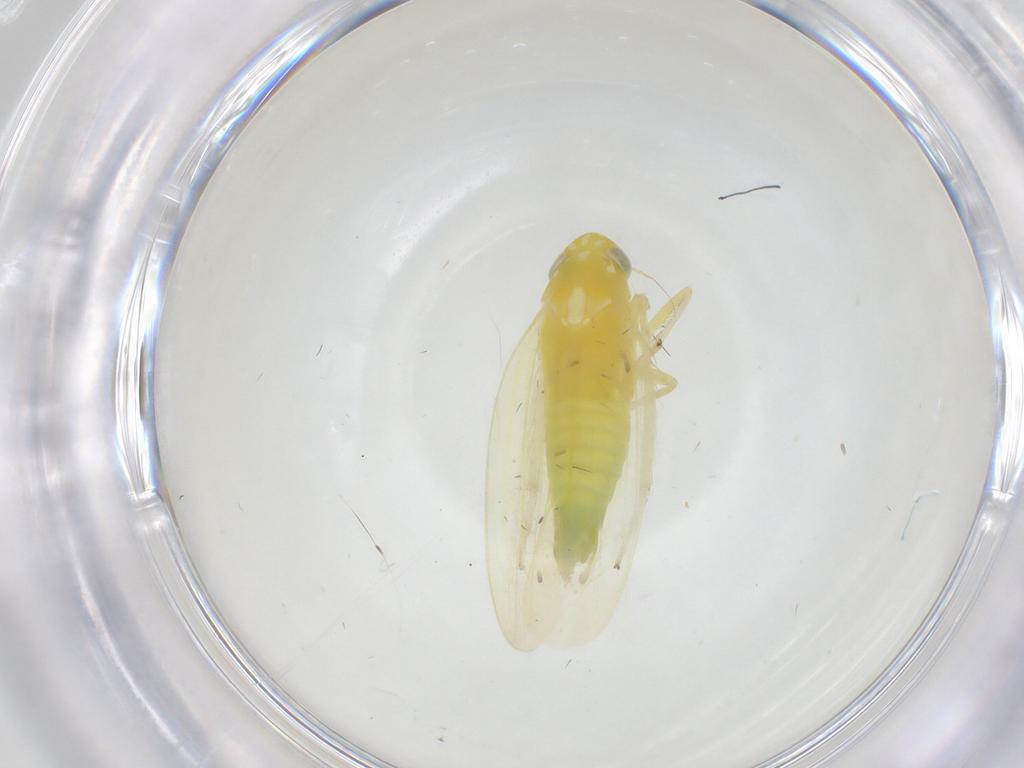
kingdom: Animalia
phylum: Arthropoda
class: Insecta
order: Hemiptera
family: Cicadellidae
